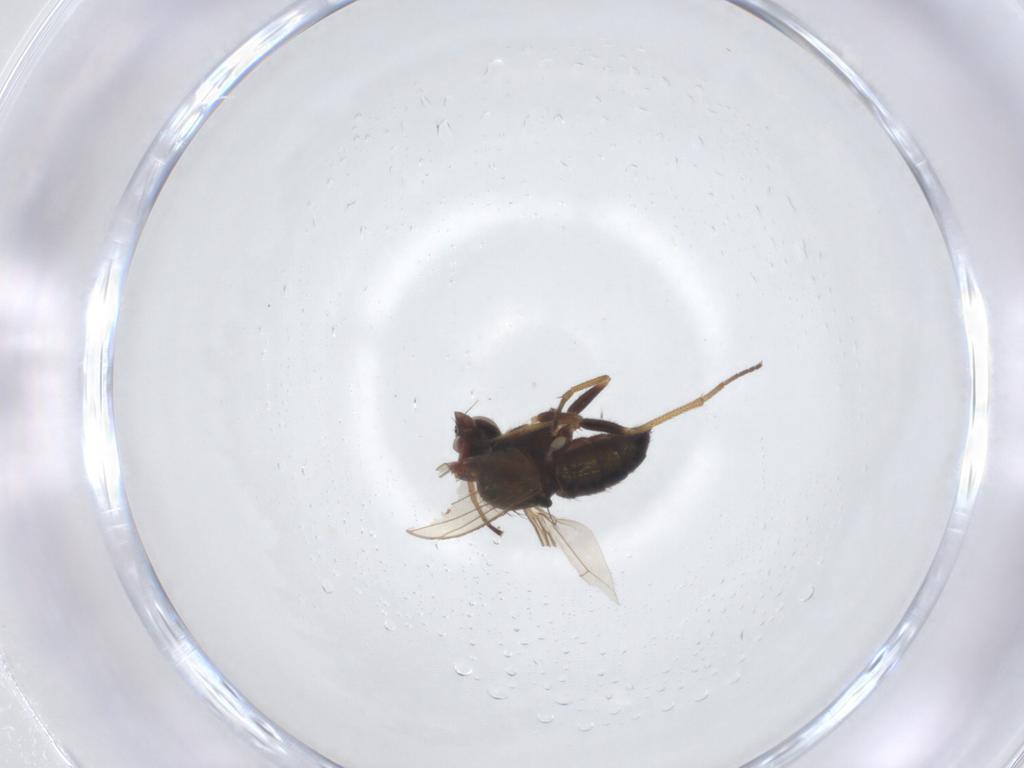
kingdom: Animalia
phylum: Arthropoda
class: Insecta
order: Diptera
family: Dolichopodidae
